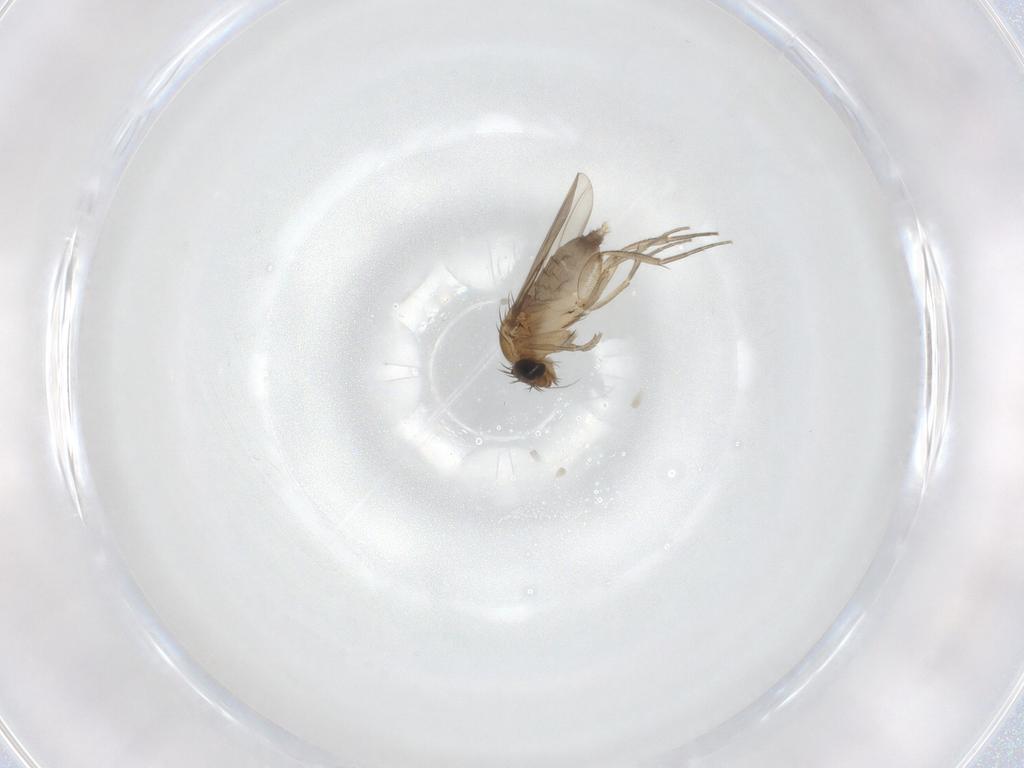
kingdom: Animalia
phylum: Arthropoda
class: Insecta
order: Diptera
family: Phoridae
